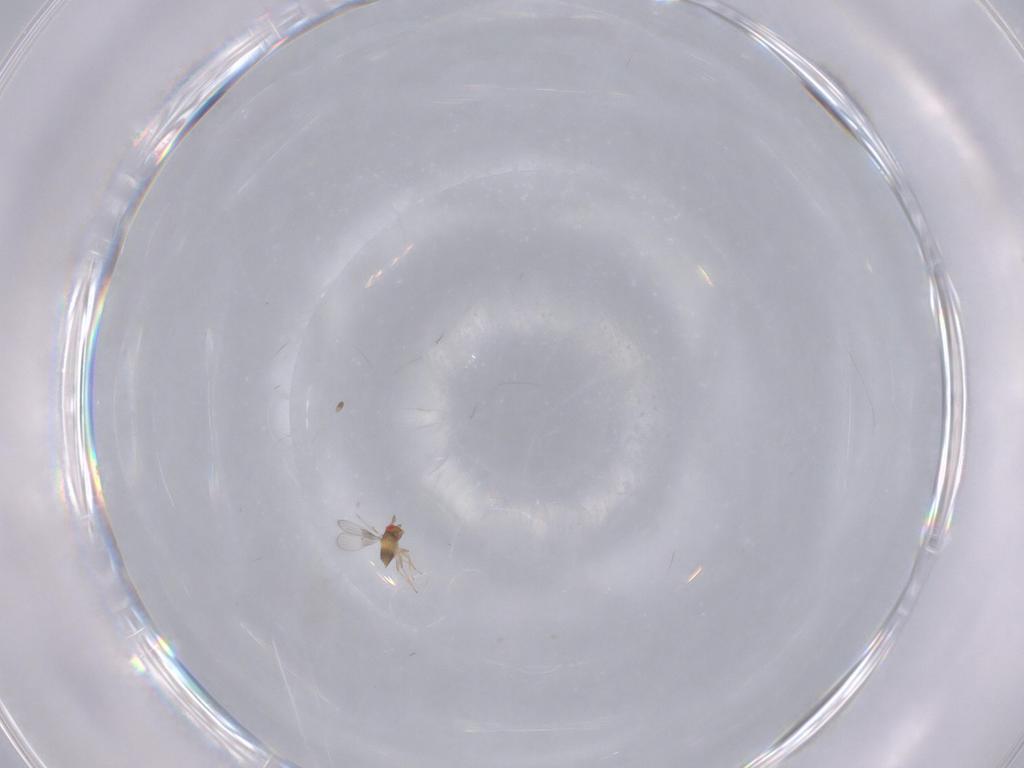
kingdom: Animalia
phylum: Arthropoda
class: Insecta
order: Hymenoptera
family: Trichogrammatidae
